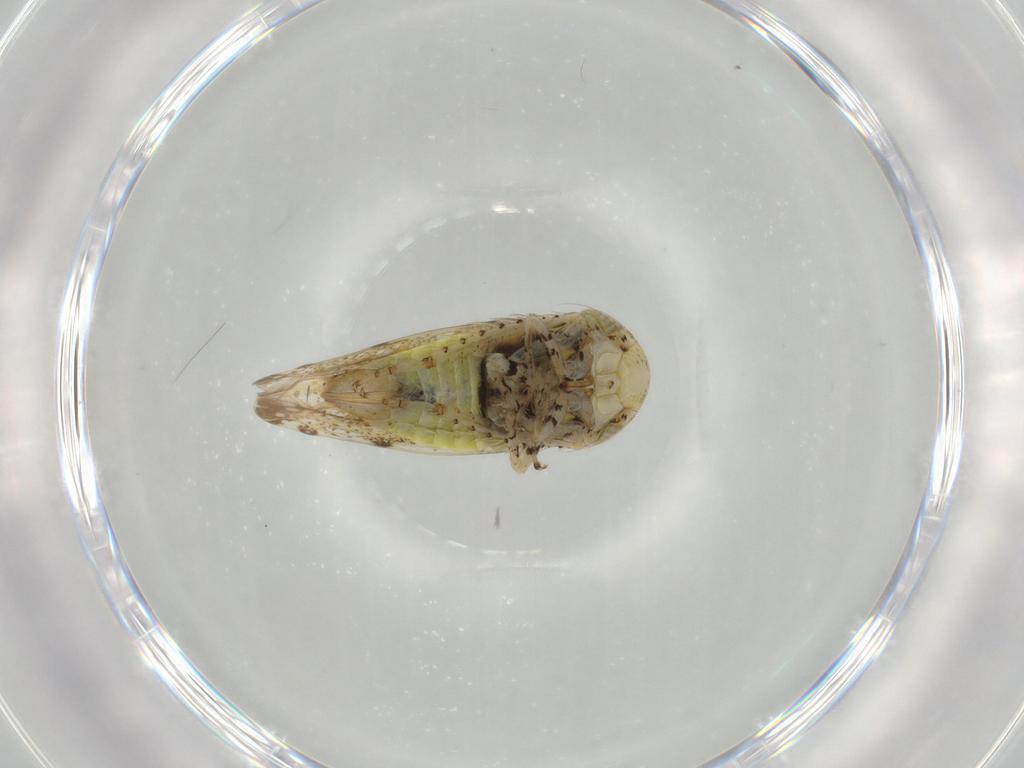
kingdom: Animalia
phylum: Arthropoda
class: Insecta
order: Hemiptera
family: Cicadellidae
